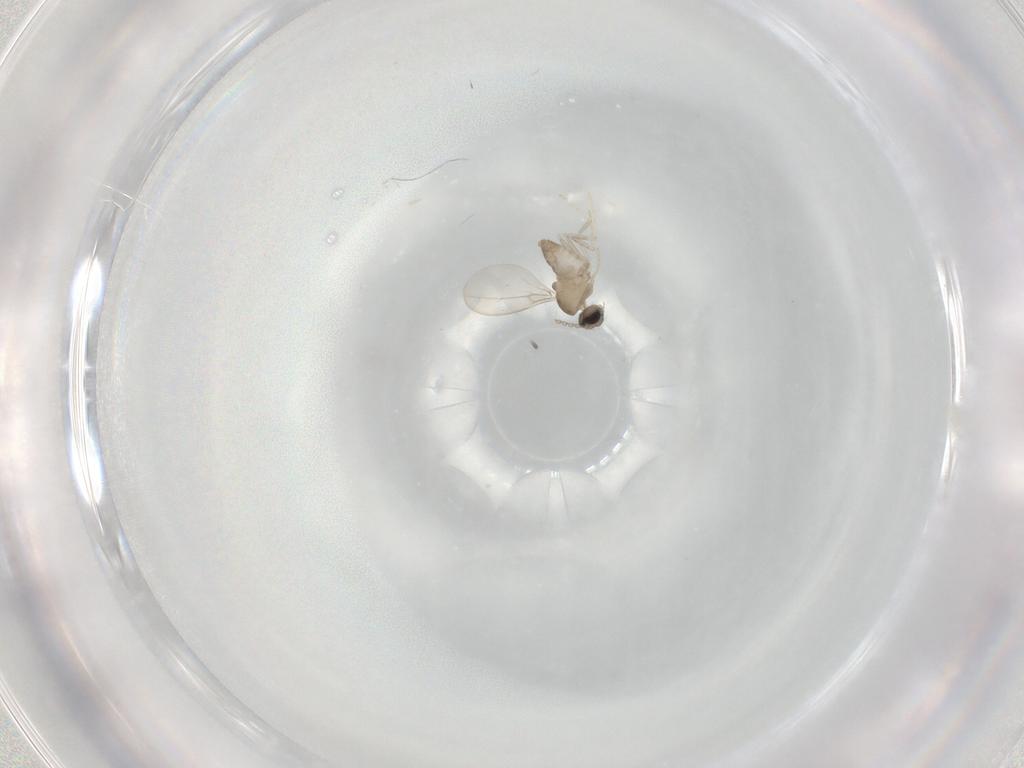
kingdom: Animalia
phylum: Arthropoda
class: Insecta
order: Diptera
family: Cecidomyiidae
